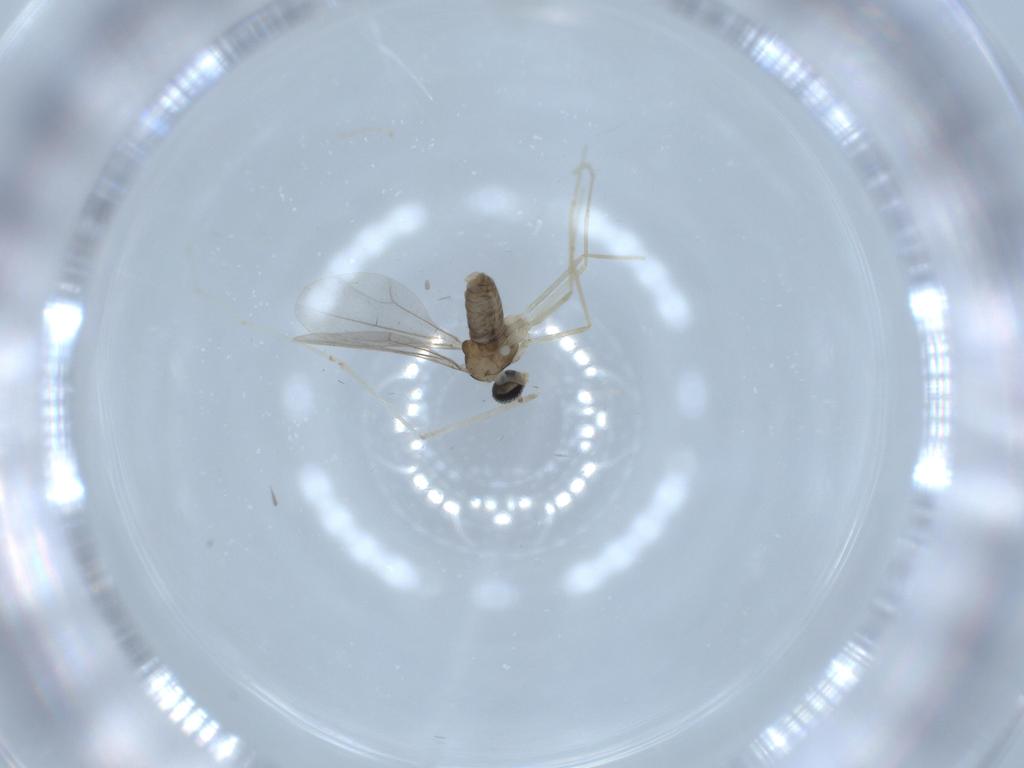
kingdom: Animalia
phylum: Arthropoda
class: Insecta
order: Diptera
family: Cecidomyiidae
